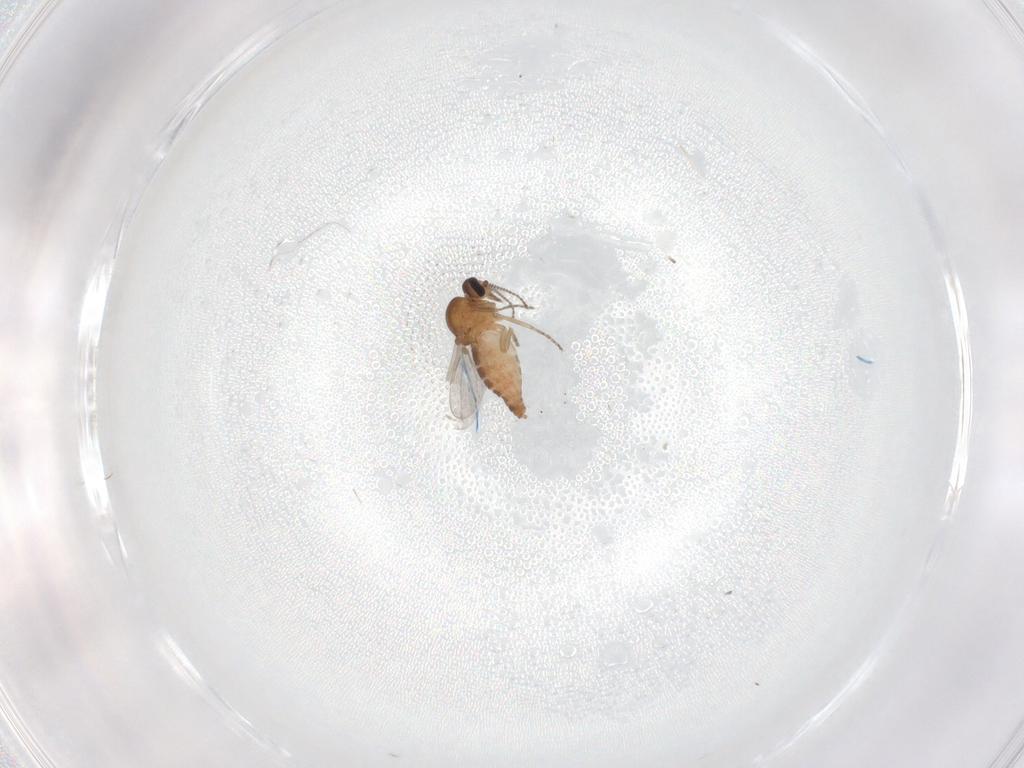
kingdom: Animalia
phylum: Arthropoda
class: Insecta
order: Diptera
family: Ceratopogonidae
